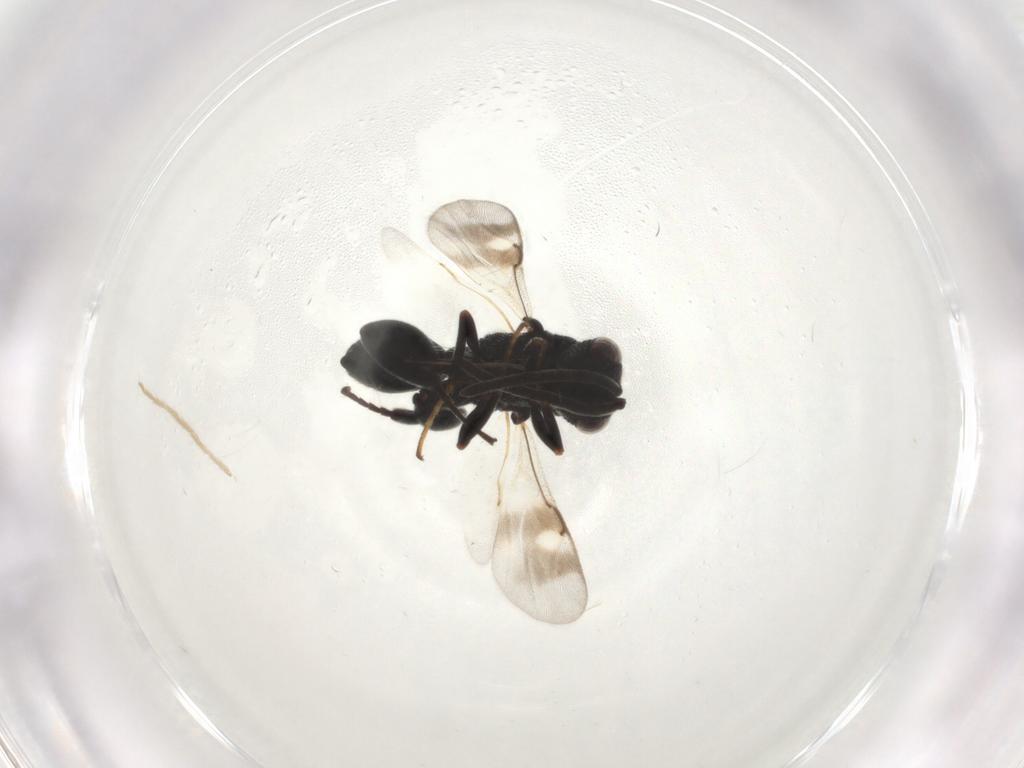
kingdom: Animalia
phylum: Arthropoda
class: Insecta
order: Hymenoptera
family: Chalcididae
